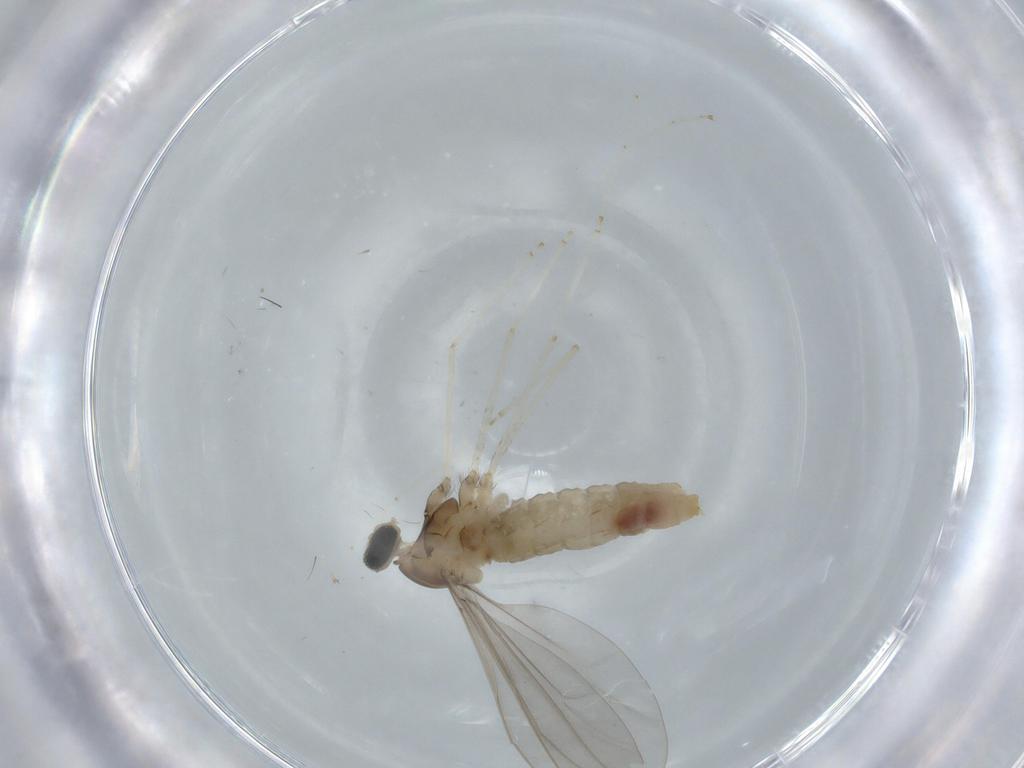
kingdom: Animalia
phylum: Arthropoda
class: Insecta
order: Diptera
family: Cecidomyiidae
